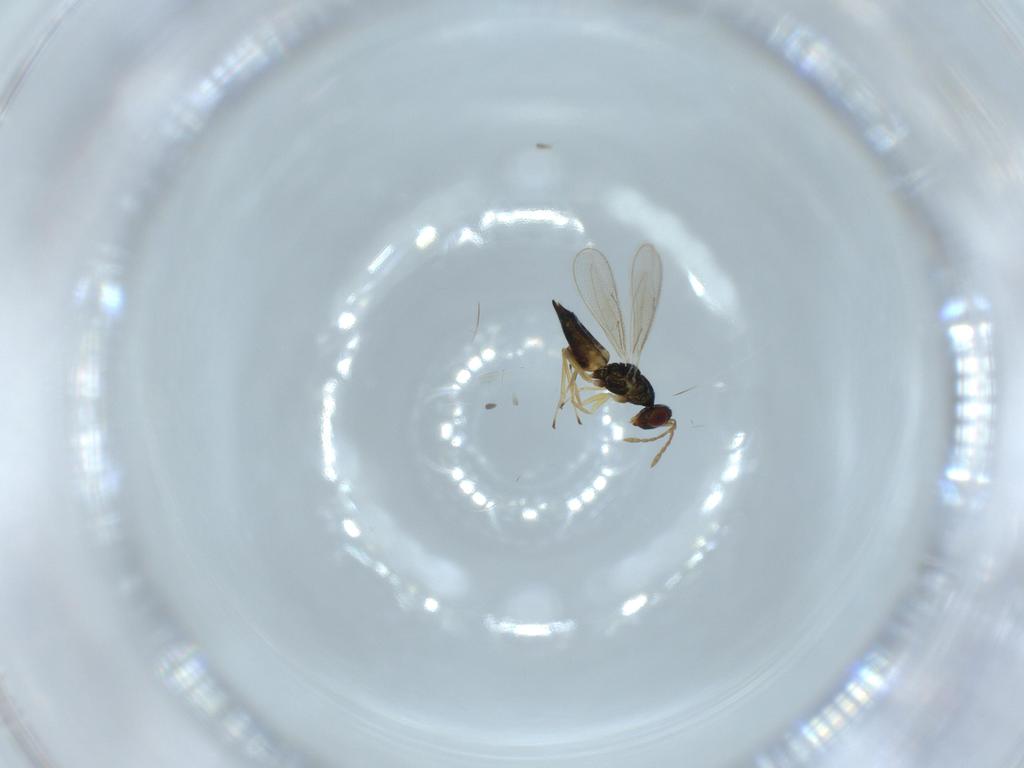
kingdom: Animalia
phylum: Arthropoda
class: Insecta
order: Hymenoptera
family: Eulophidae
